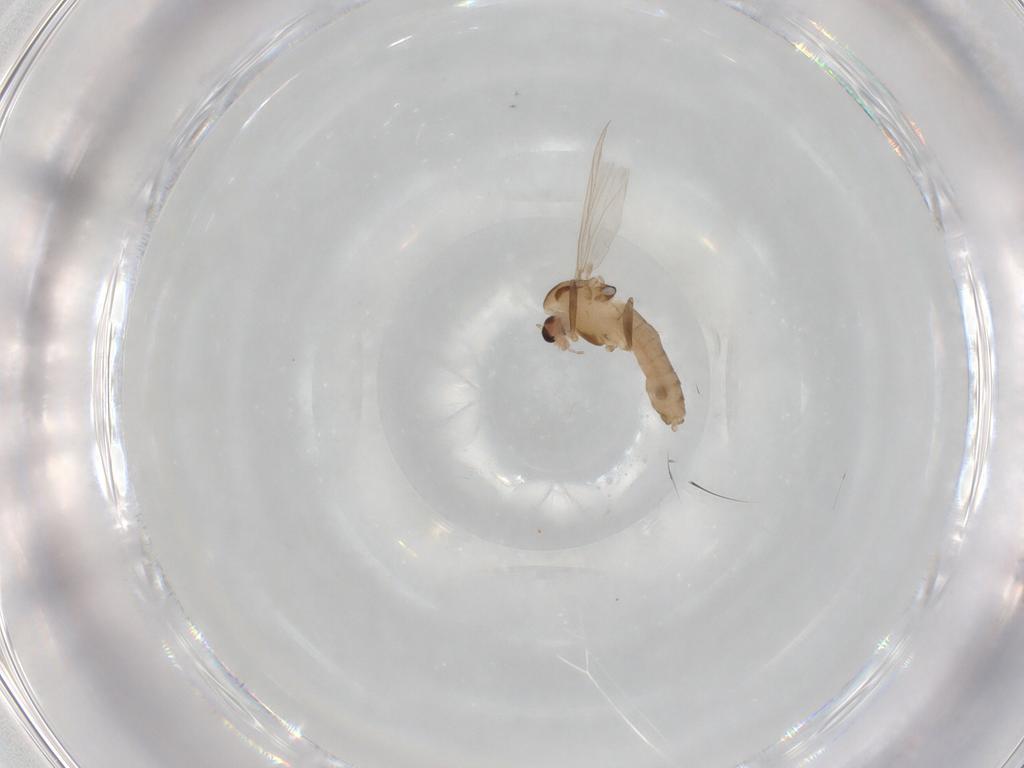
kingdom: Animalia
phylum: Arthropoda
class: Insecta
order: Diptera
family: Chironomidae
